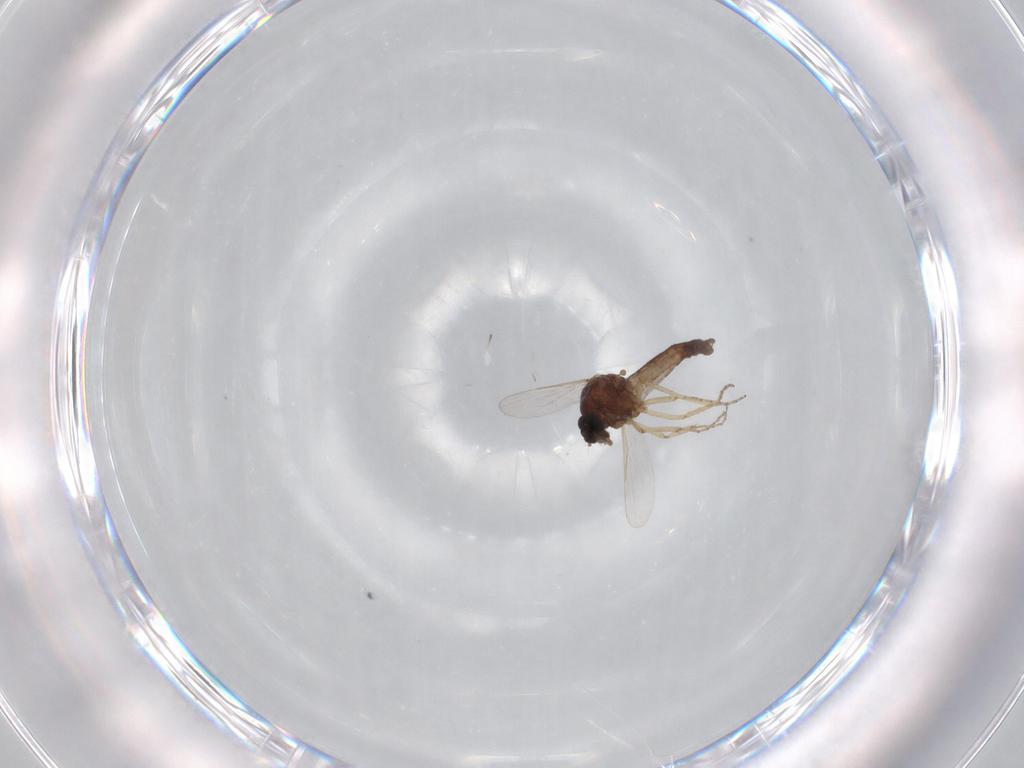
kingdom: Animalia
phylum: Arthropoda
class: Insecta
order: Diptera
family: Ceratopogonidae
